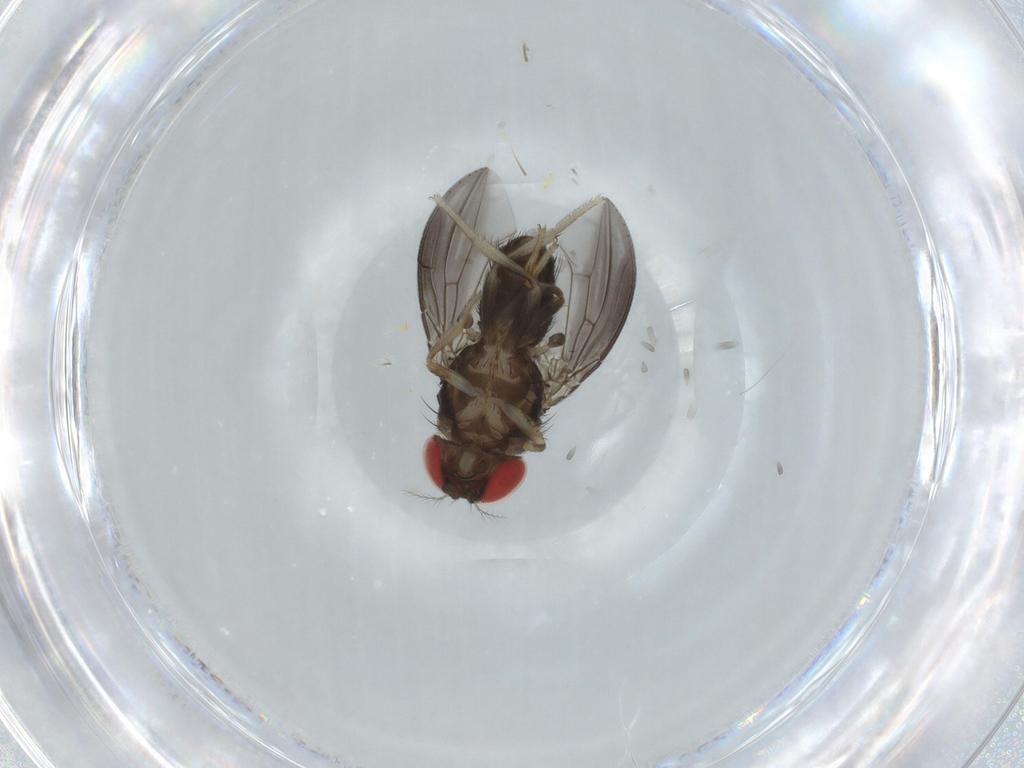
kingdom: Animalia
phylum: Arthropoda
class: Insecta
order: Diptera
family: Drosophilidae
